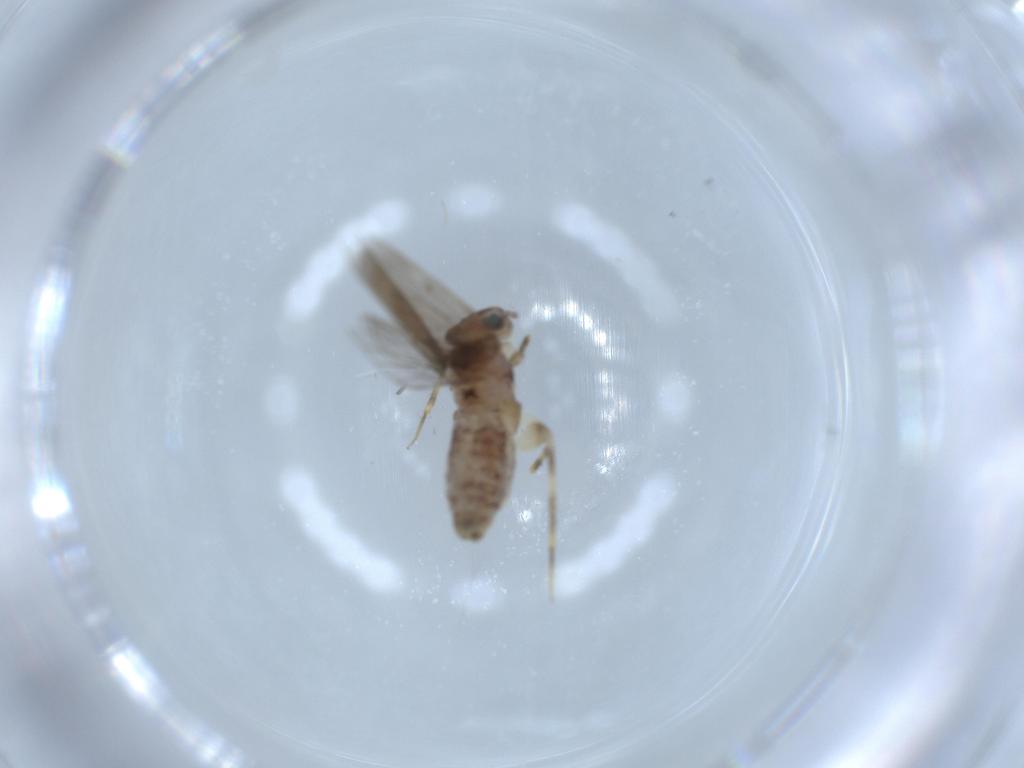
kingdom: Animalia
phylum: Arthropoda
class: Insecta
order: Psocodea
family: Lepidopsocidae
